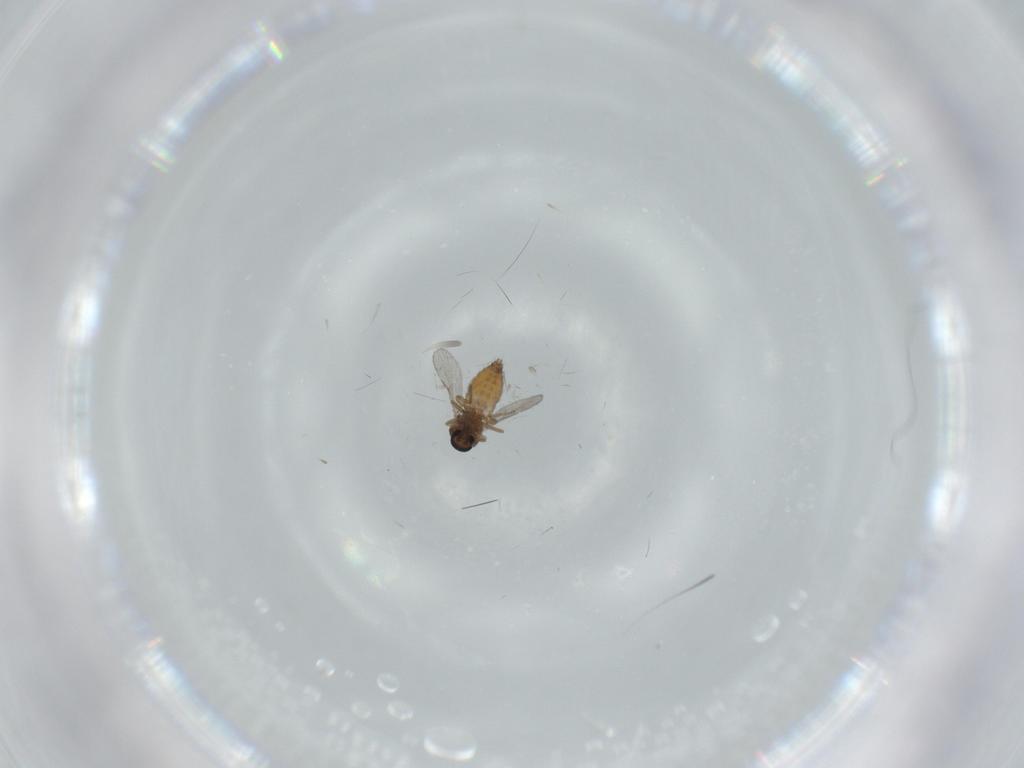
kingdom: Animalia
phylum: Arthropoda
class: Insecta
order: Diptera
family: Ceratopogonidae
